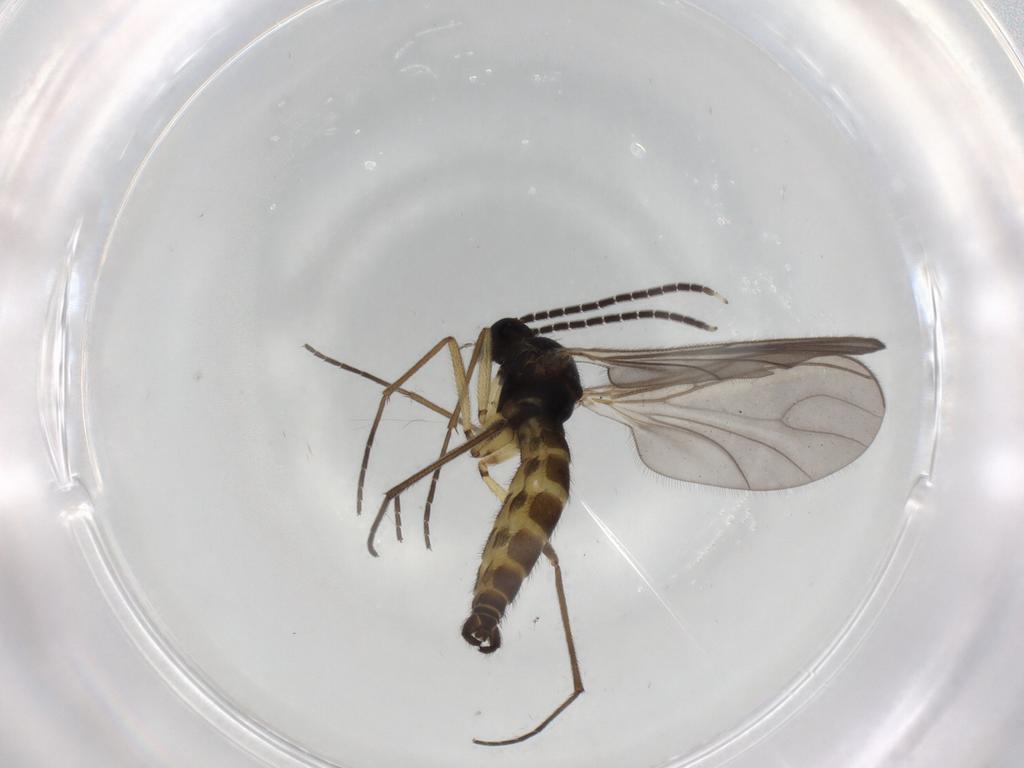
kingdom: Animalia
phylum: Arthropoda
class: Insecta
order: Diptera
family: Sciaridae
